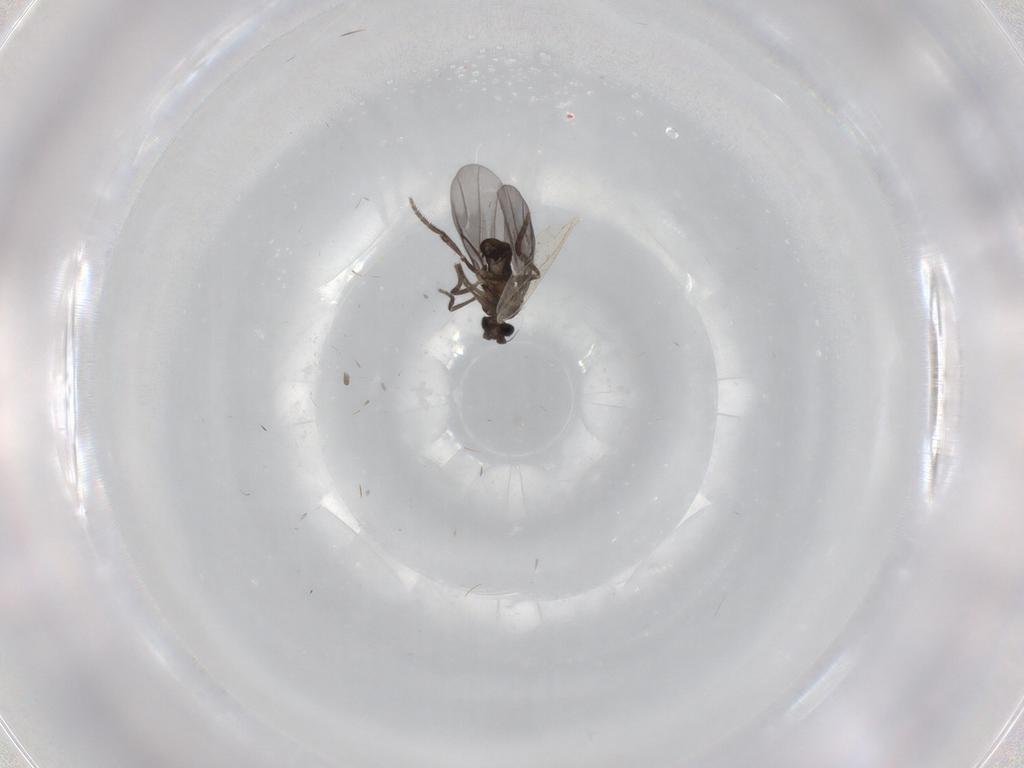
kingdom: Animalia
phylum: Arthropoda
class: Insecta
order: Diptera
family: Phoridae
